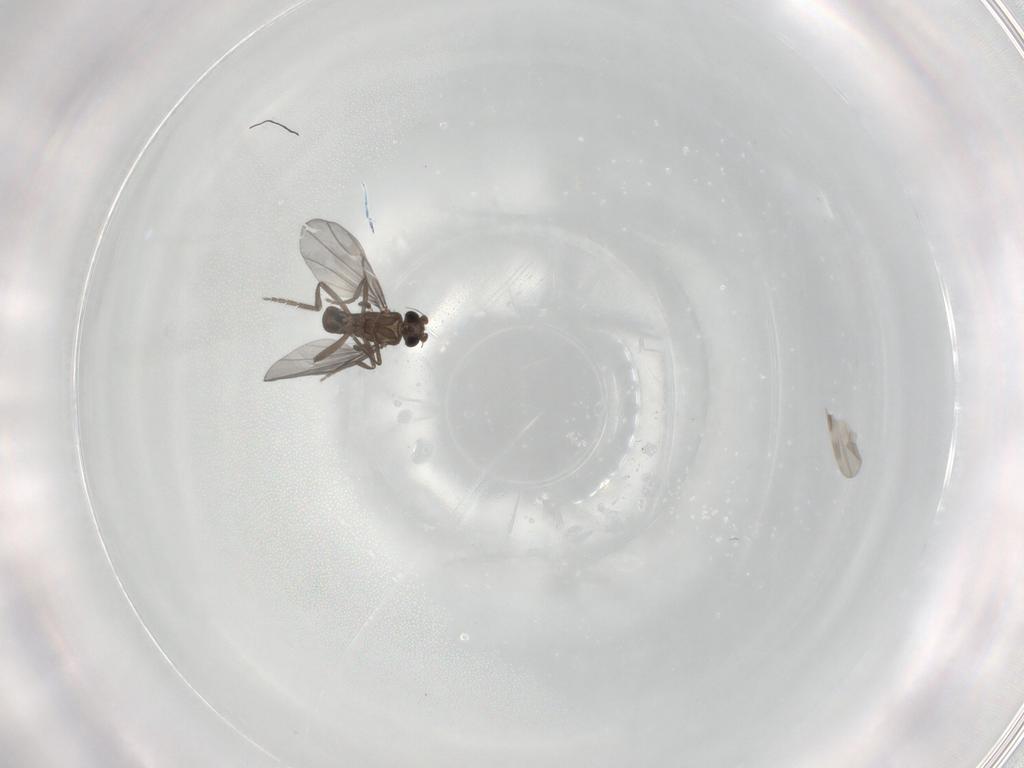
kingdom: Animalia
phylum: Arthropoda
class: Insecta
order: Diptera
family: Phoridae
